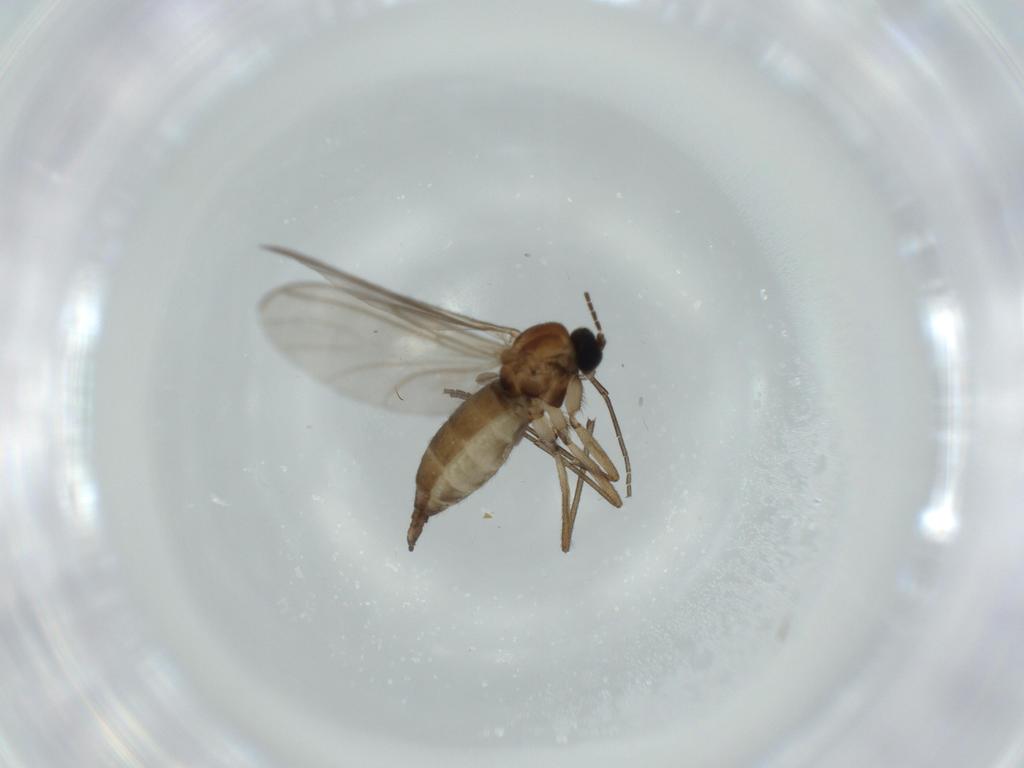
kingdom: Animalia
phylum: Arthropoda
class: Insecta
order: Diptera
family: Sciaridae
